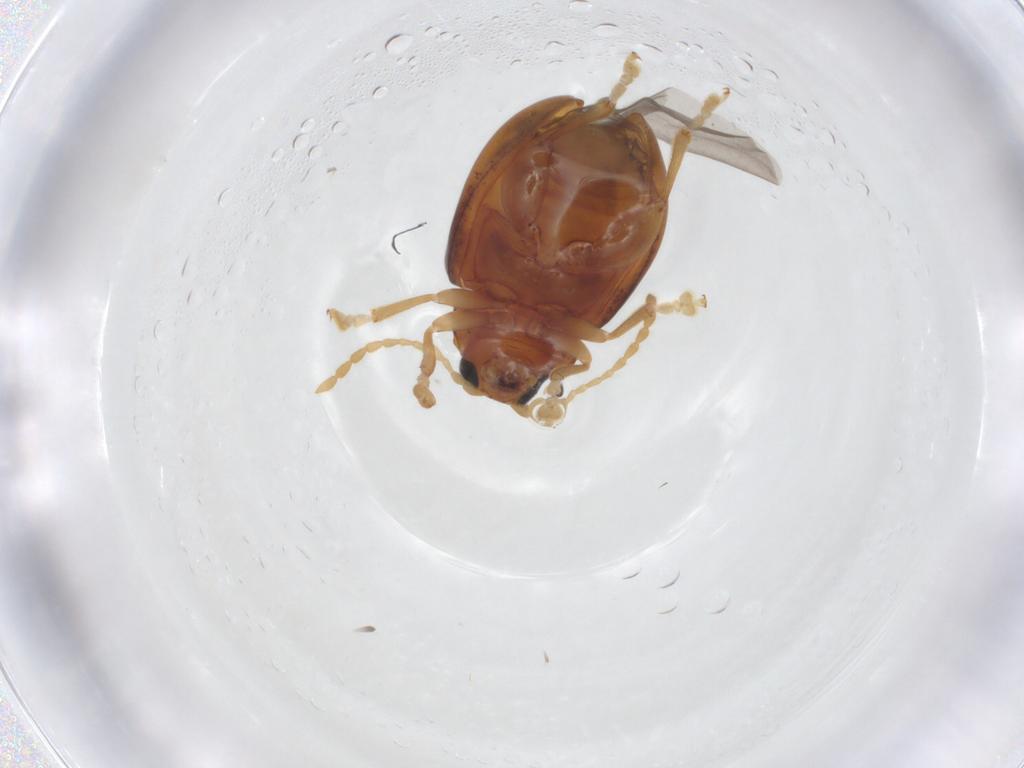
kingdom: Animalia
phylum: Arthropoda
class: Insecta
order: Coleoptera
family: Chrysomelidae
